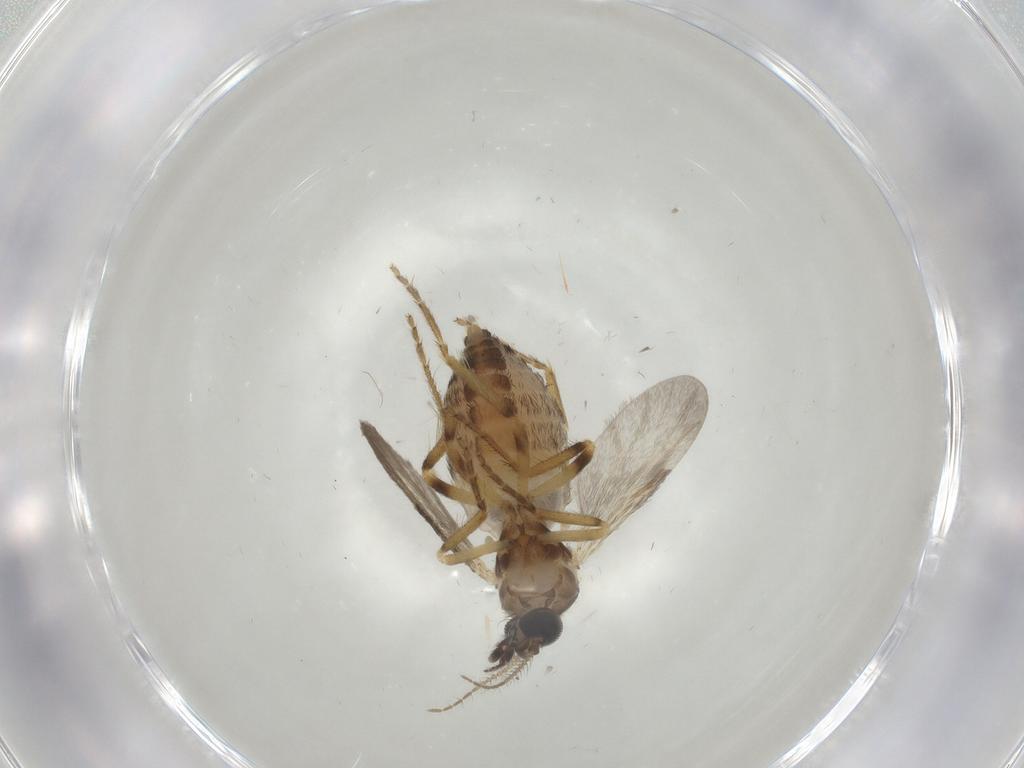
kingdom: Animalia
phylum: Arthropoda
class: Insecta
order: Diptera
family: Ceratopogonidae
